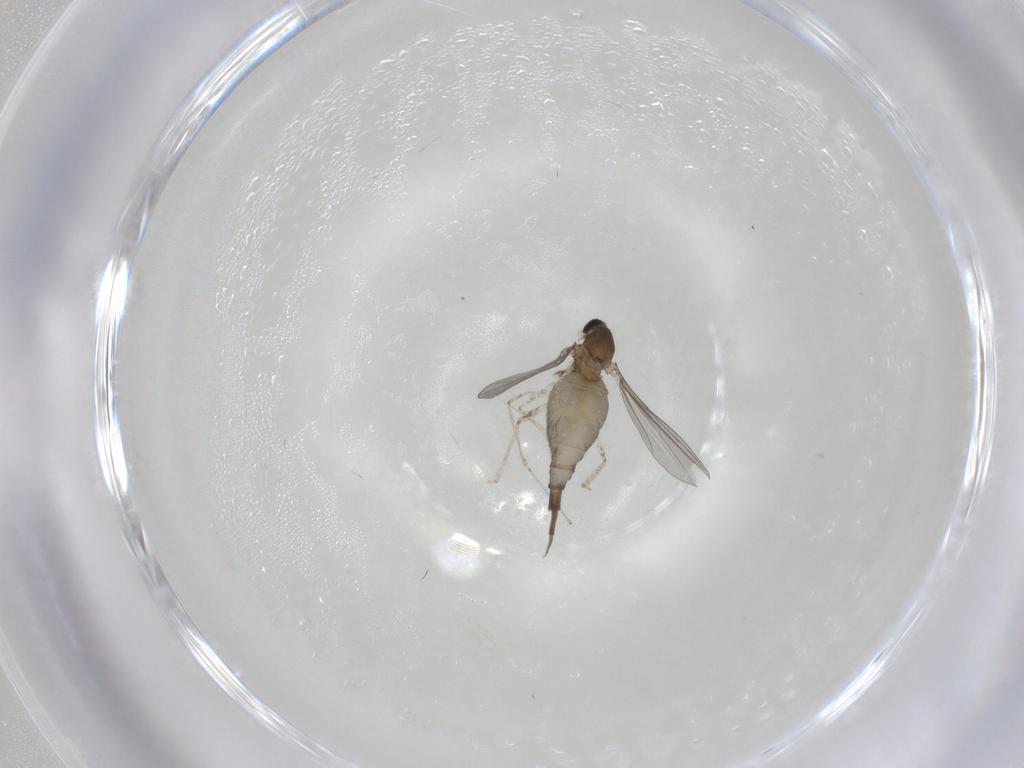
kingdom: Animalia
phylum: Arthropoda
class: Insecta
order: Diptera
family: Cecidomyiidae
